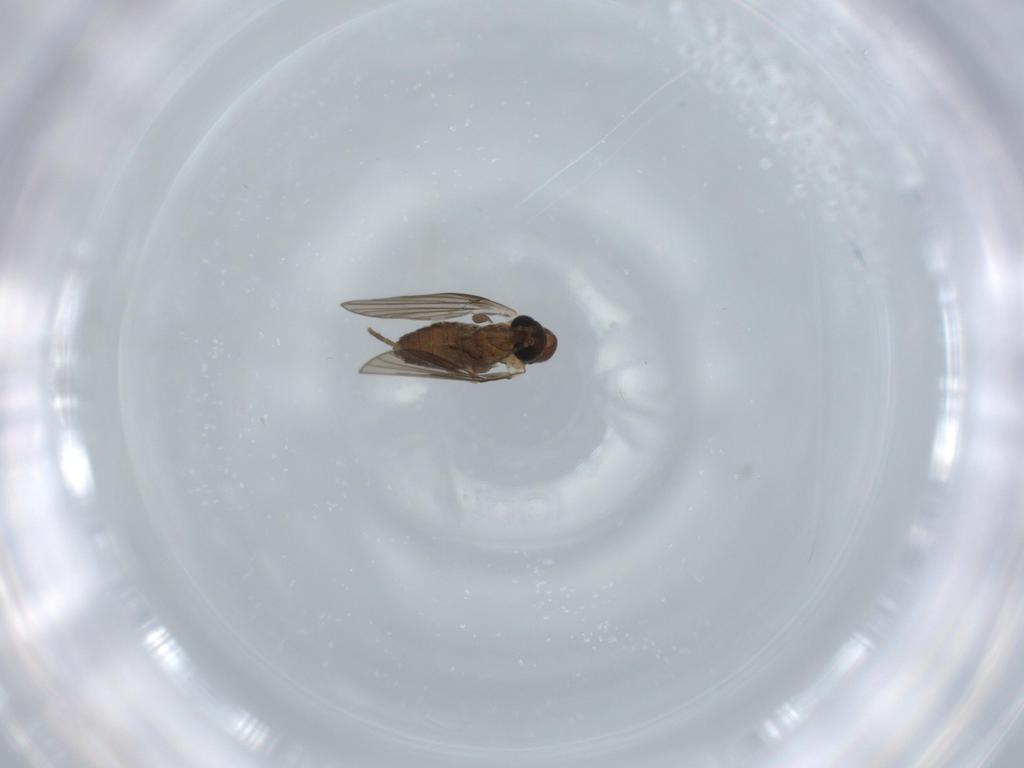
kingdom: Animalia
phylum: Arthropoda
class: Insecta
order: Diptera
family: Psychodidae
